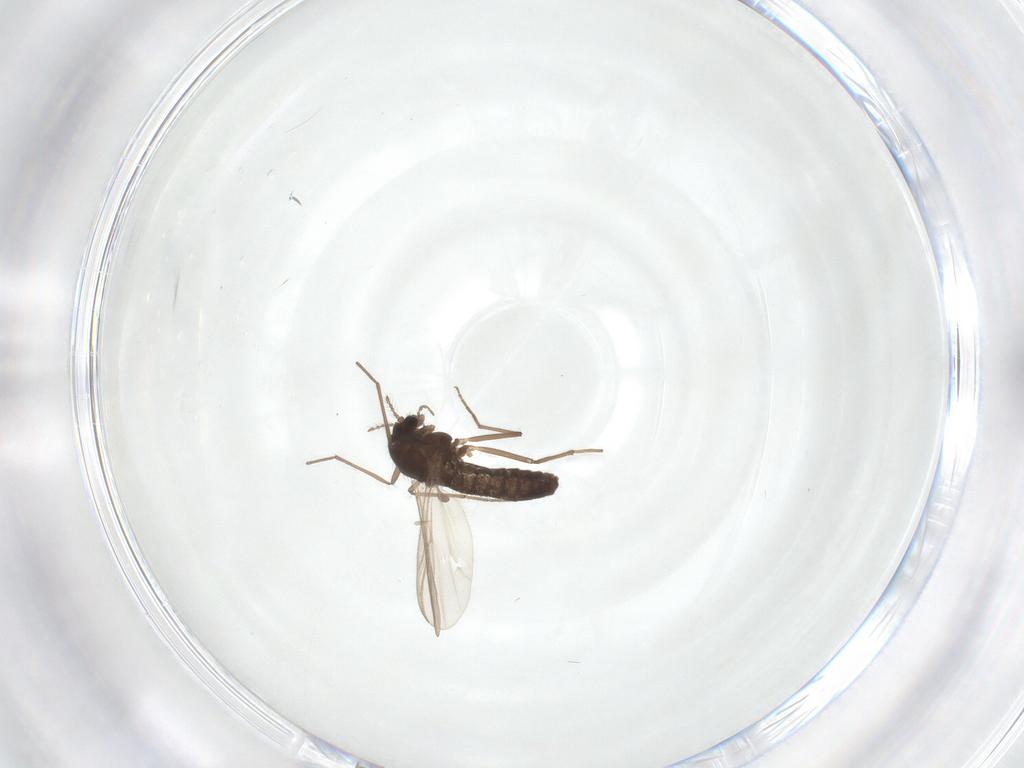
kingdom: Animalia
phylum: Arthropoda
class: Insecta
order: Diptera
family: Chironomidae
